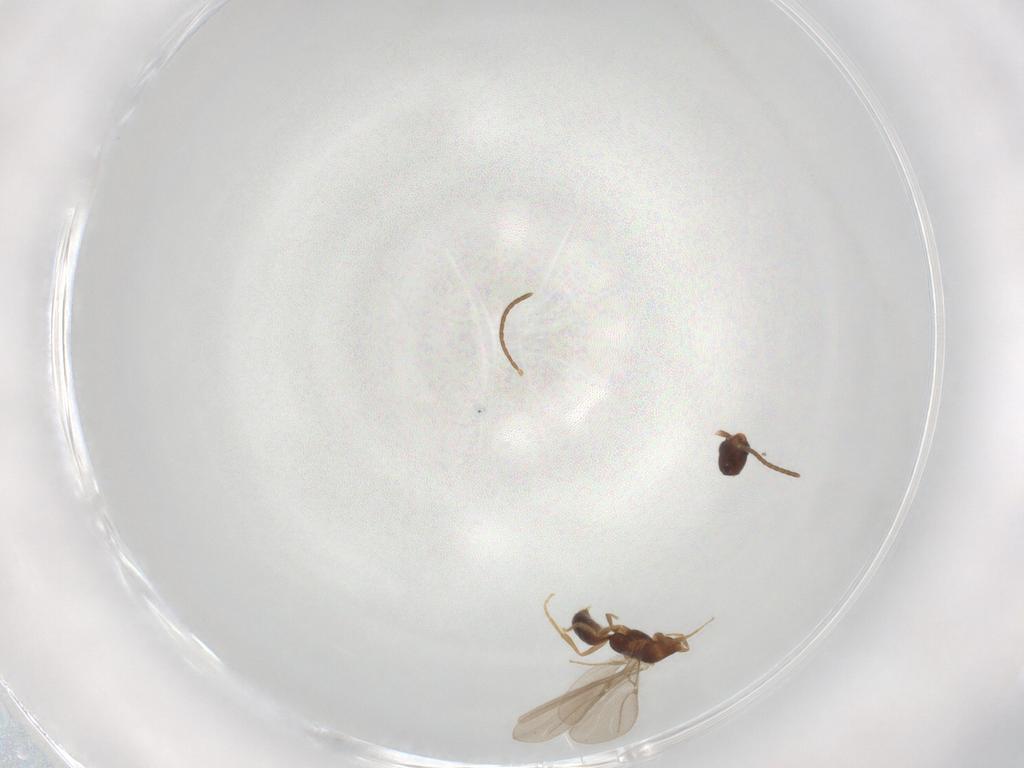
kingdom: Animalia
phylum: Arthropoda
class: Insecta
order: Hymenoptera
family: Bethylidae
